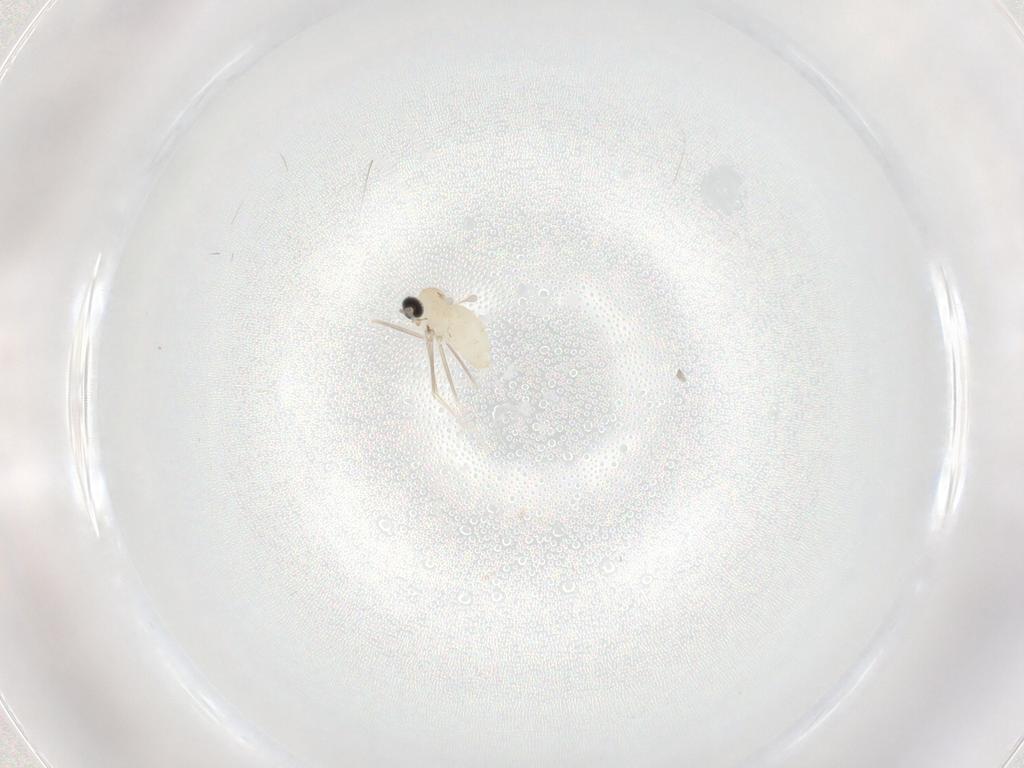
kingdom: Animalia
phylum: Arthropoda
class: Insecta
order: Diptera
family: Cecidomyiidae
